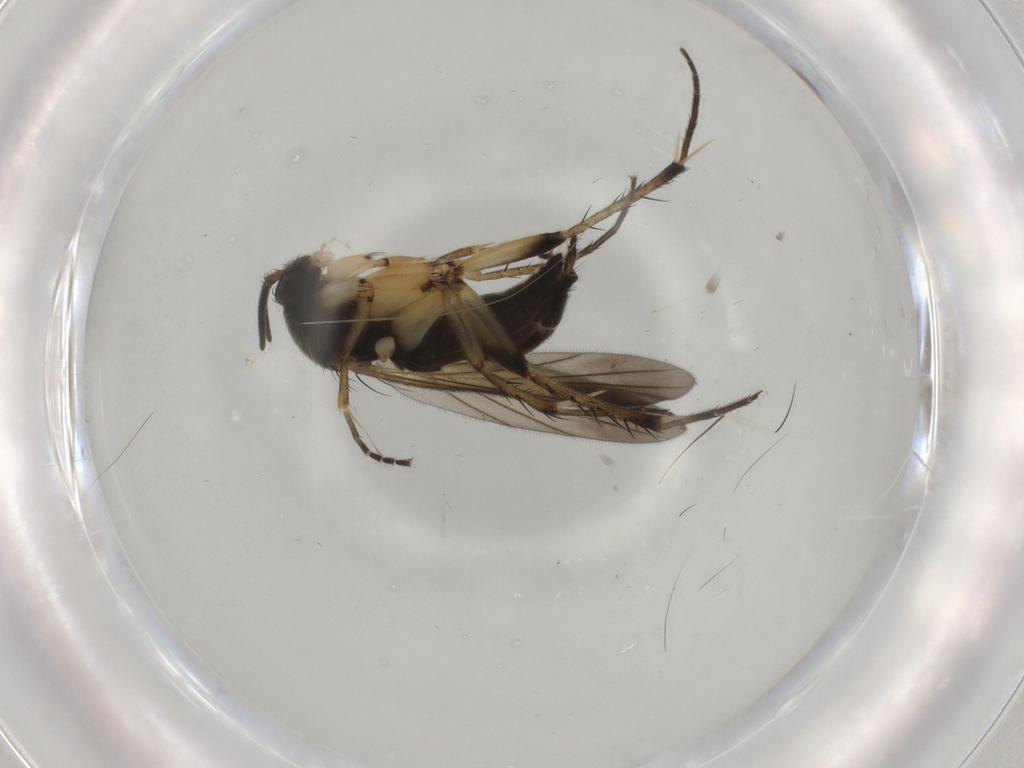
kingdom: Animalia
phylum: Arthropoda
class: Insecta
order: Diptera
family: Mycetophilidae
